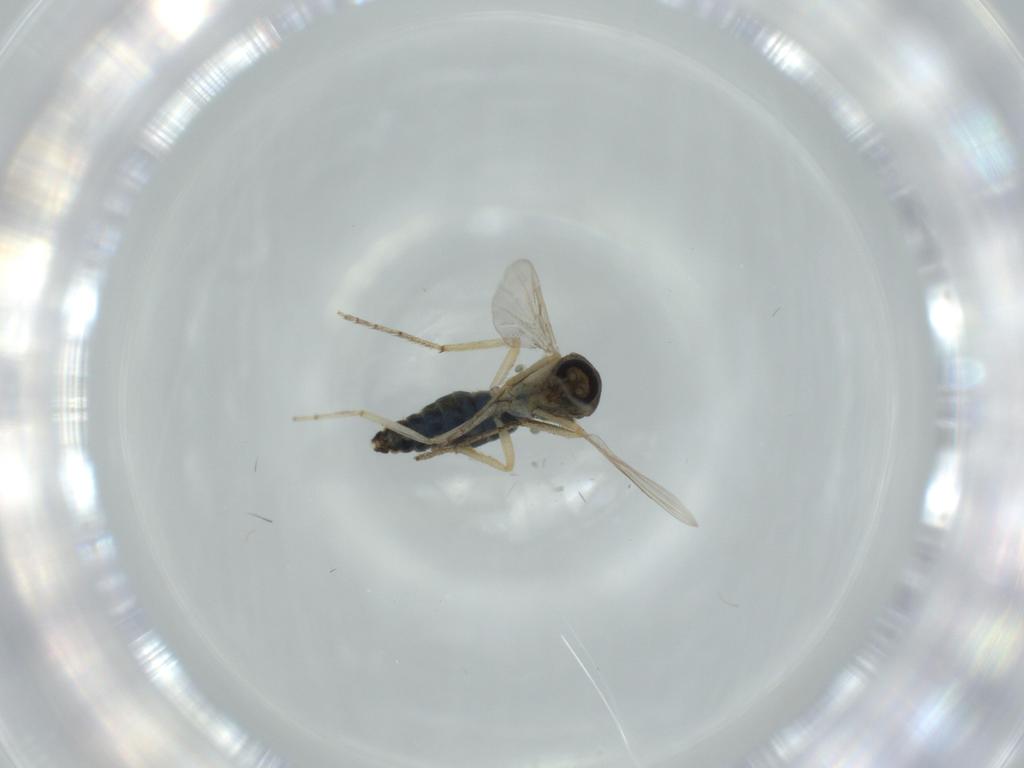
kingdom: Animalia
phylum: Arthropoda
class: Insecta
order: Diptera
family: Ceratopogonidae
